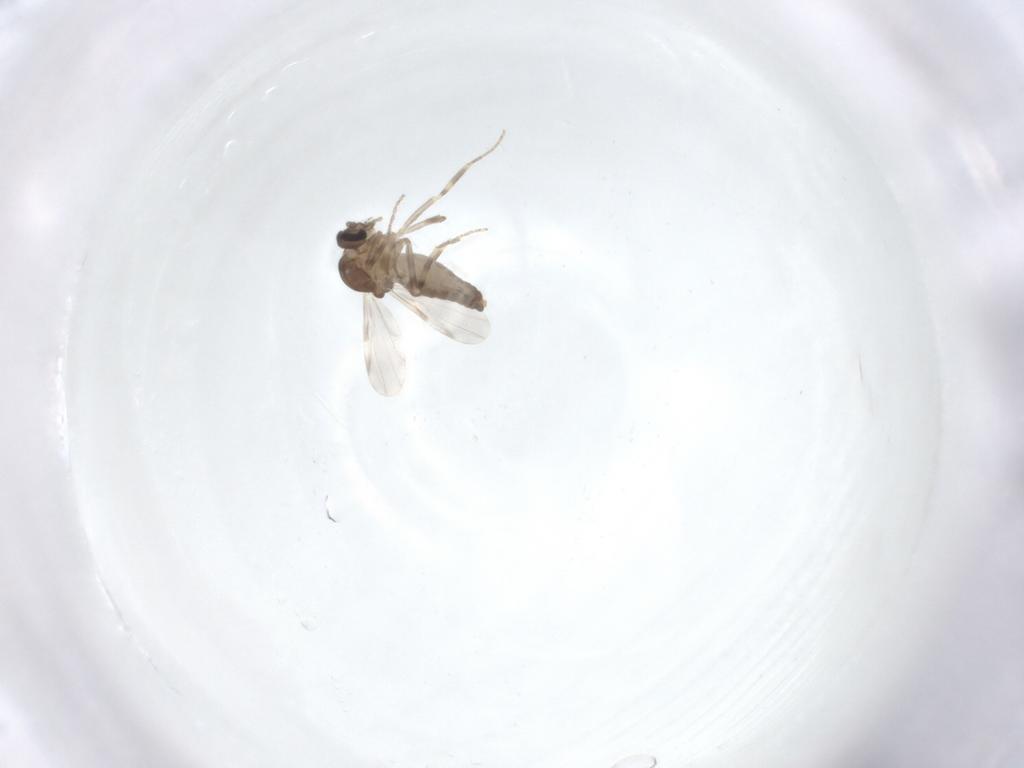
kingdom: Animalia
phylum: Arthropoda
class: Insecta
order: Diptera
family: Ceratopogonidae
